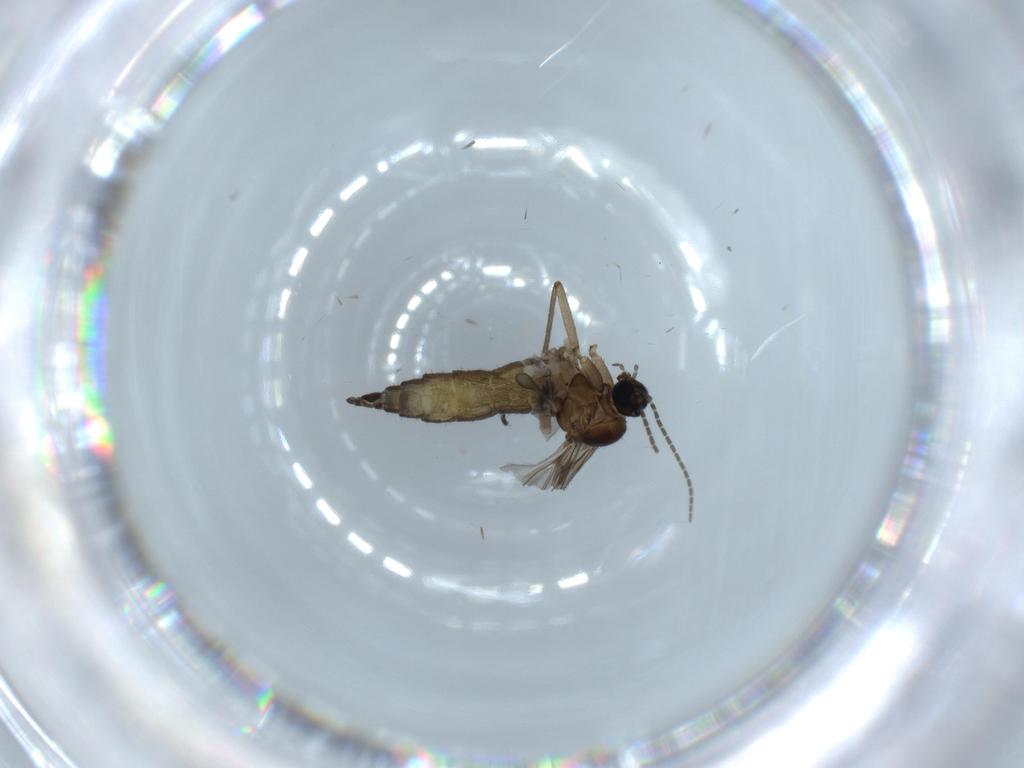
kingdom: Animalia
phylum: Arthropoda
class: Insecta
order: Diptera
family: Sciaridae
